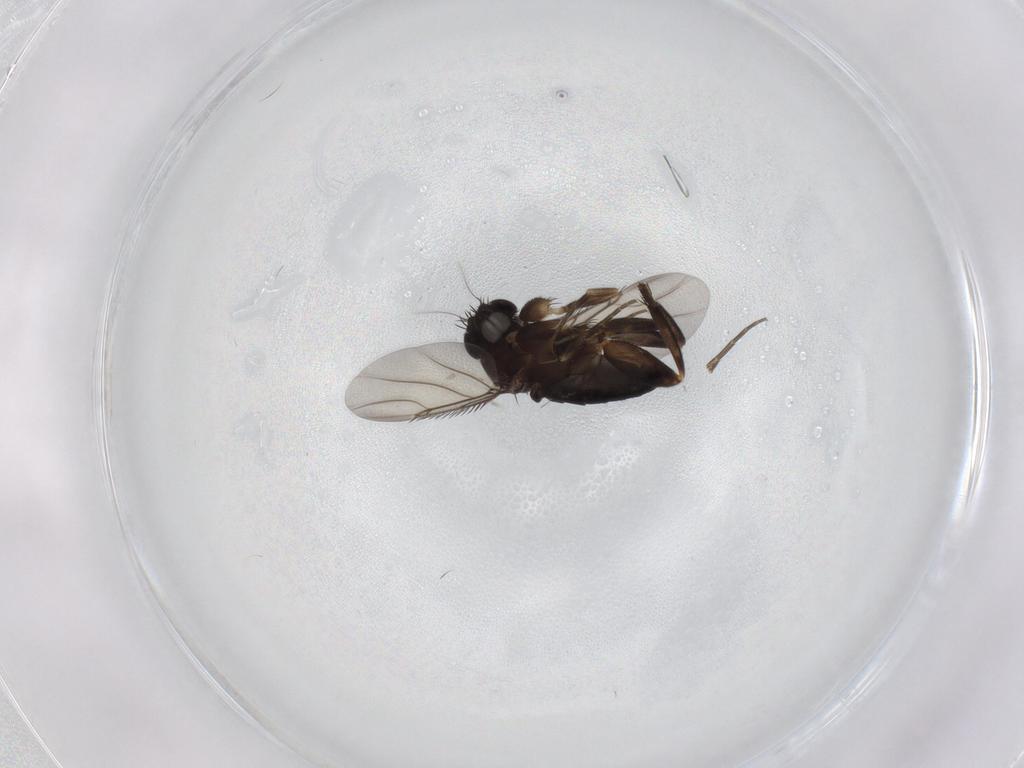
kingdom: Animalia
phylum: Arthropoda
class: Insecta
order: Diptera
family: Phoridae
